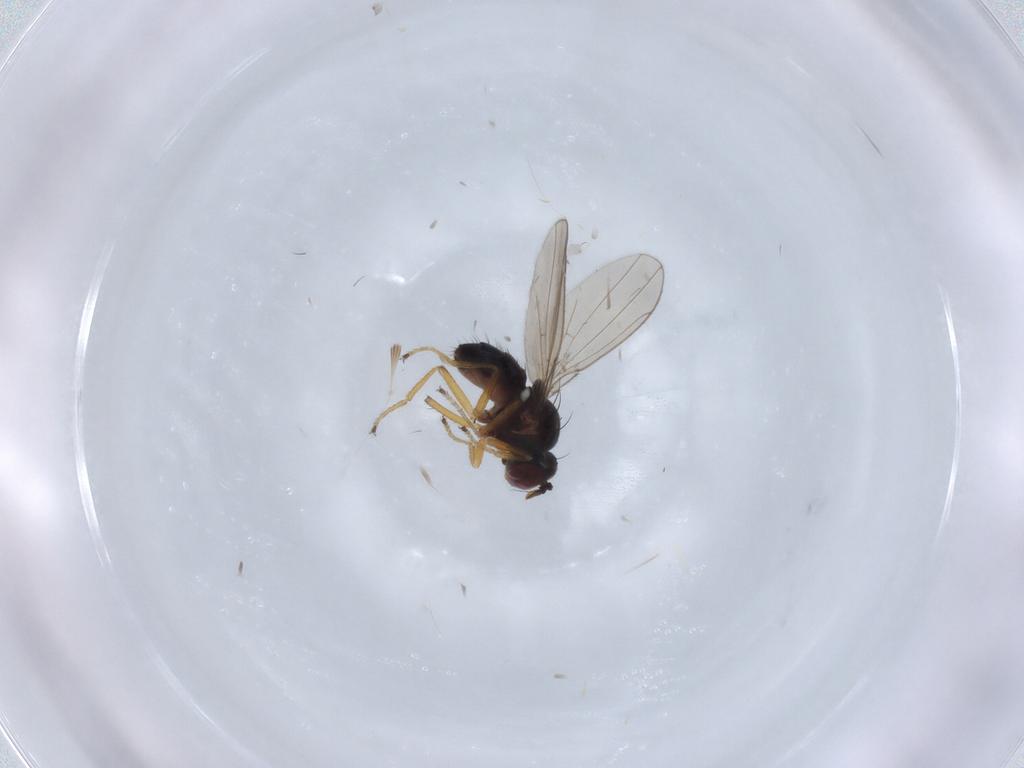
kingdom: Animalia
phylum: Arthropoda
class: Insecta
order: Diptera
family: Ephydridae
